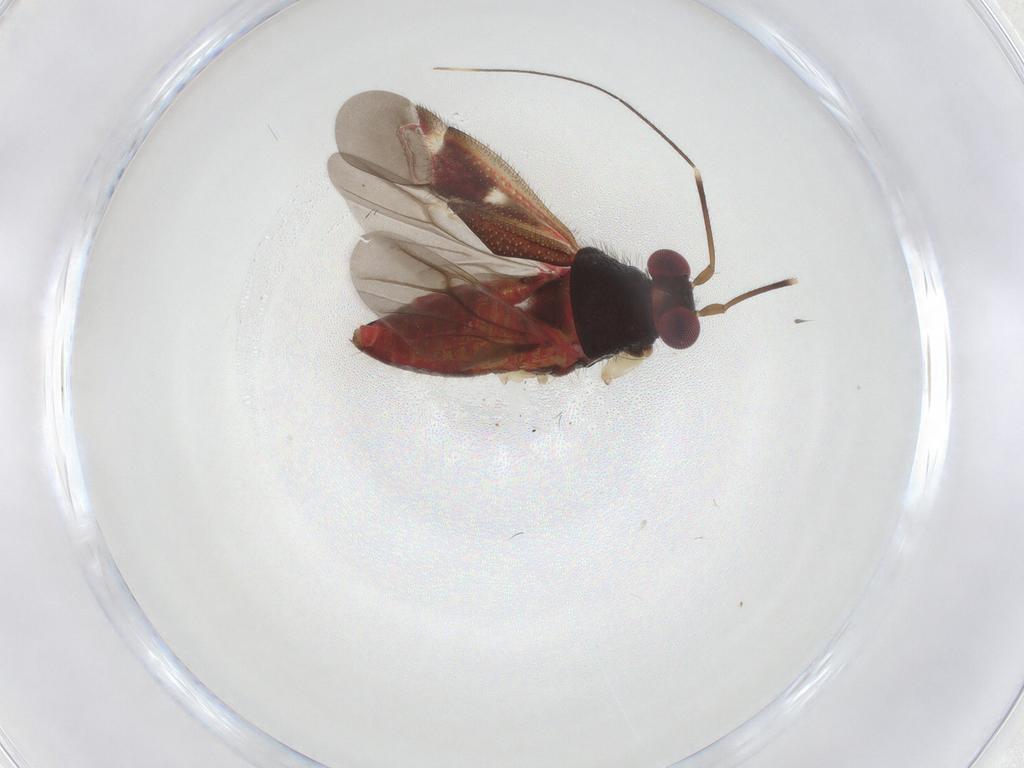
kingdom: Animalia
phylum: Arthropoda
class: Insecta
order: Hemiptera
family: Miridae
